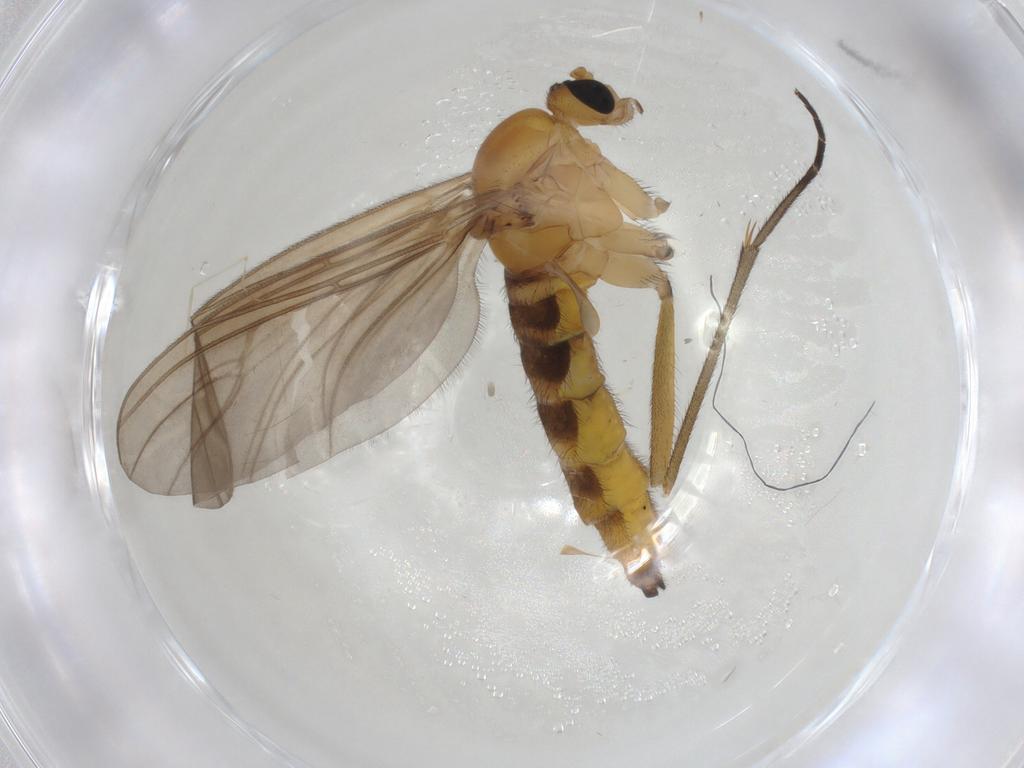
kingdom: Animalia
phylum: Arthropoda
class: Insecta
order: Diptera
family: Sciaridae
